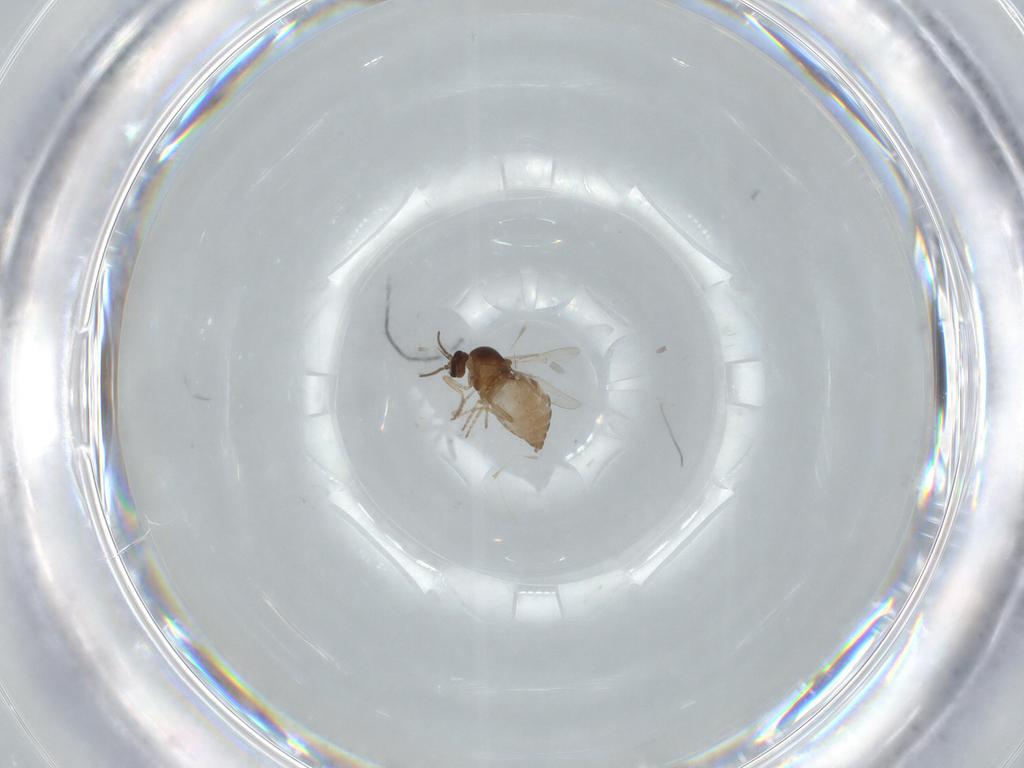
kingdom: Animalia
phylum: Arthropoda
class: Insecta
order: Diptera
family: Ceratopogonidae
